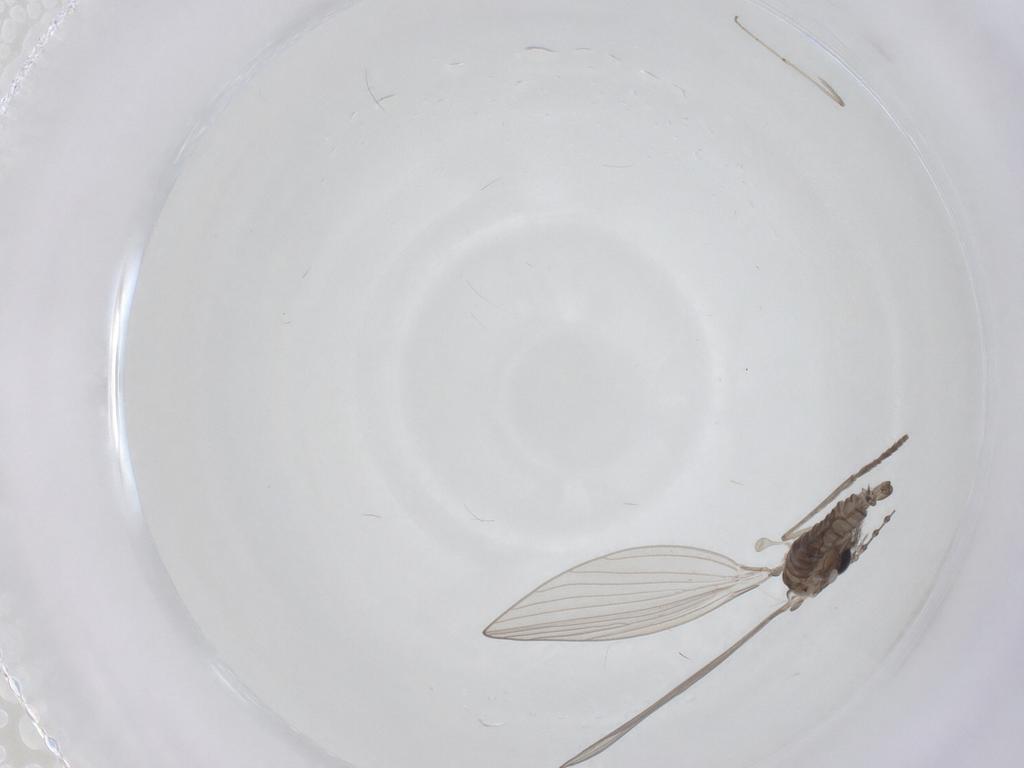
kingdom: Animalia
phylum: Arthropoda
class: Insecta
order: Diptera
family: Psychodidae
